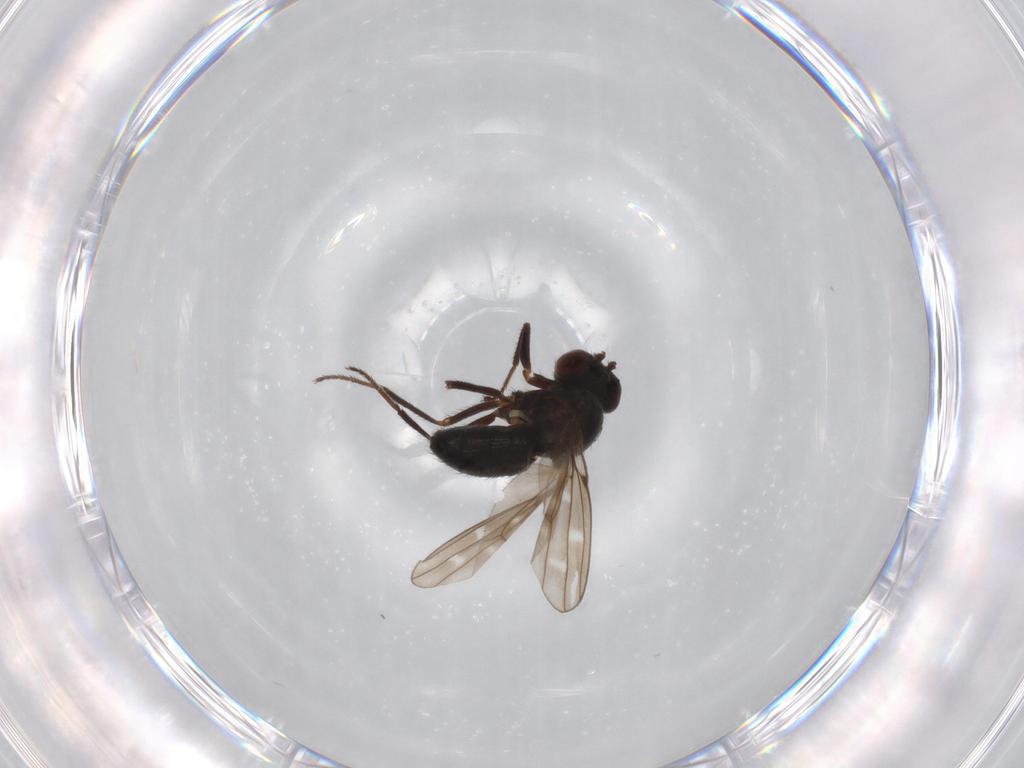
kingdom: Animalia
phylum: Arthropoda
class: Insecta
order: Diptera
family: Ephydridae
